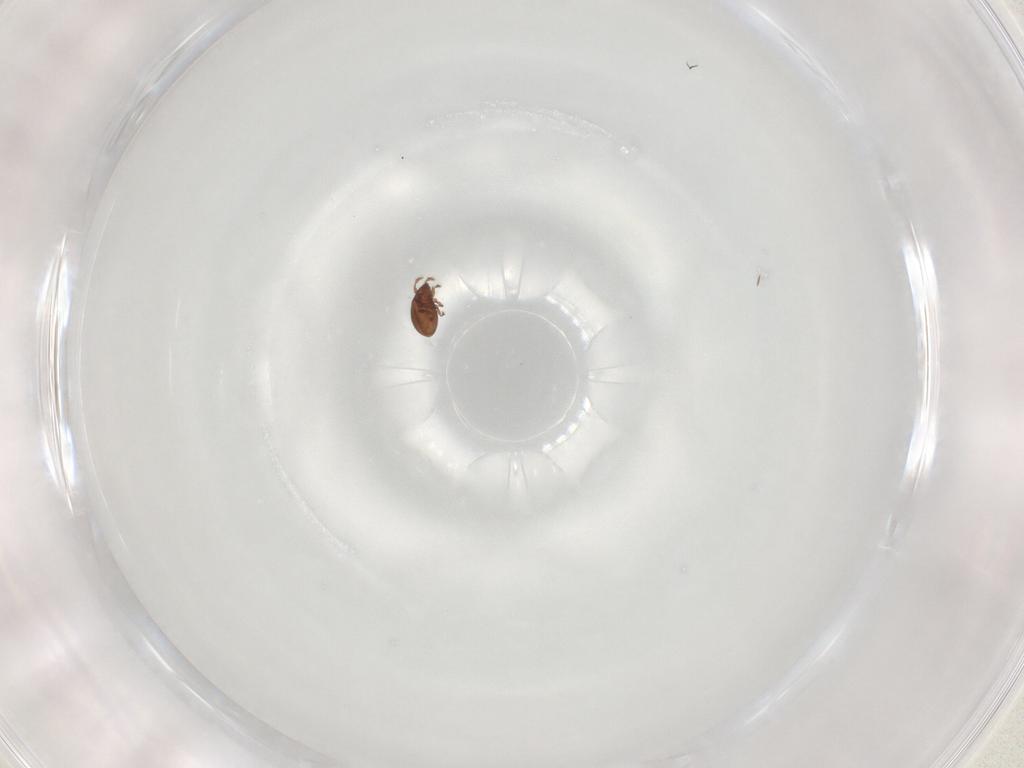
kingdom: Animalia
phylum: Arthropoda
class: Arachnida
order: Sarcoptiformes
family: Ceratoppiidae
